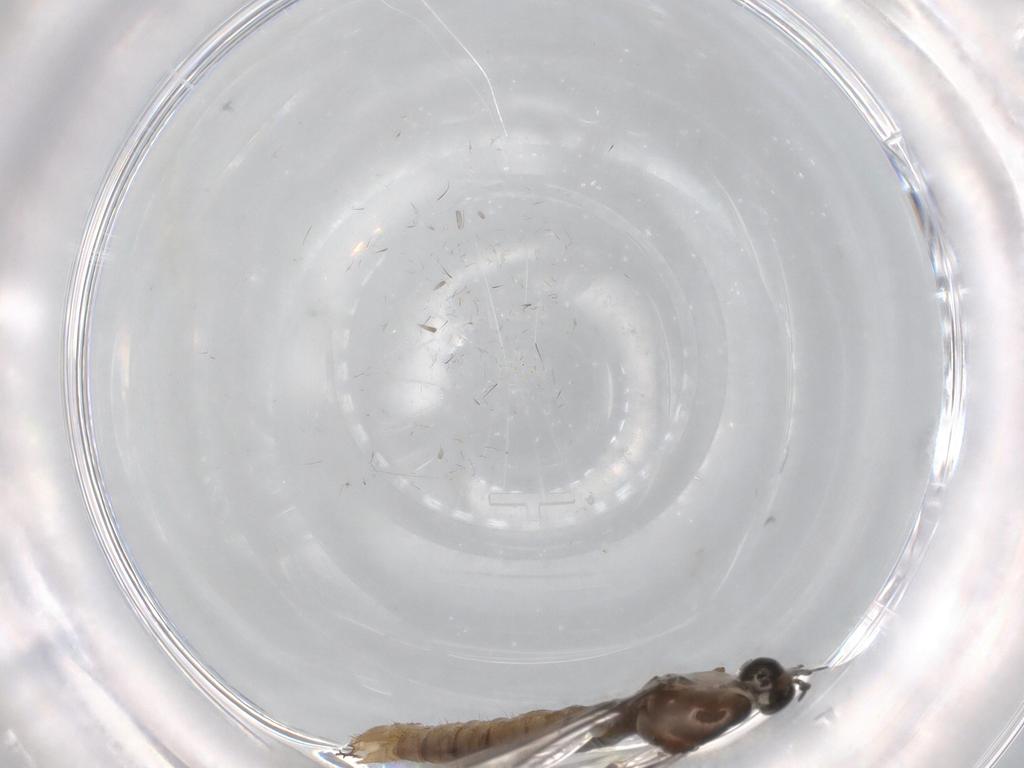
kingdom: Animalia
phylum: Arthropoda
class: Insecta
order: Diptera
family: Cecidomyiidae
